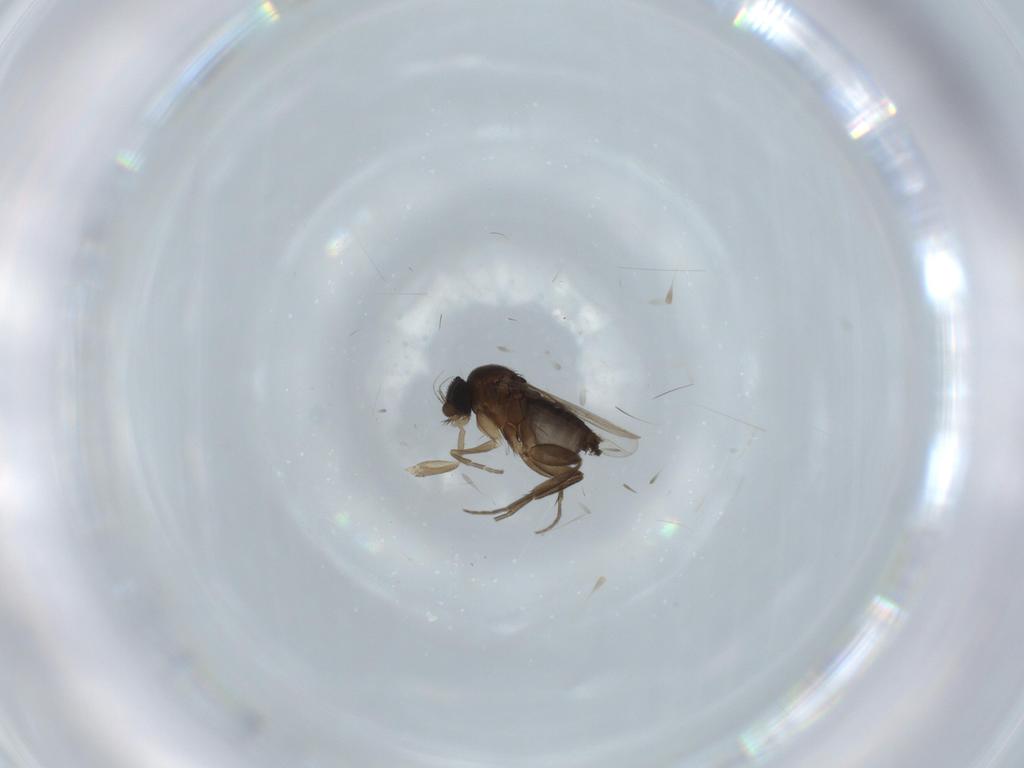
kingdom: Animalia
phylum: Arthropoda
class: Insecta
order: Diptera
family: Phoridae
